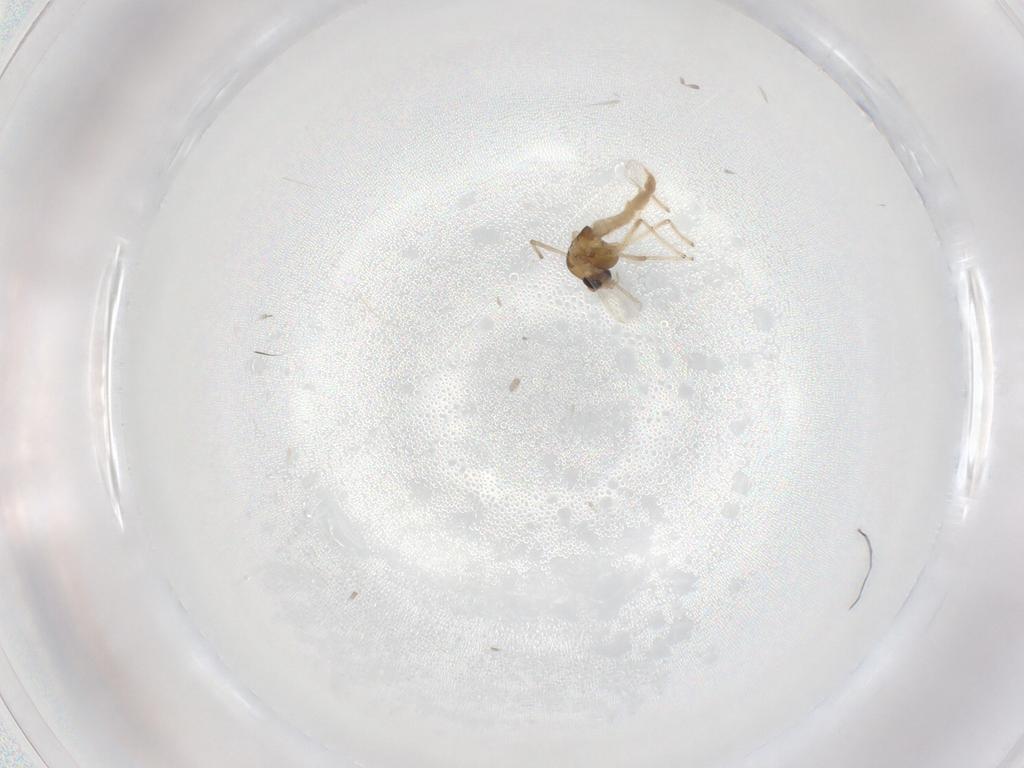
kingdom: Animalia
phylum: Arthropoda
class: Insecta
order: Diptera
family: Chironomidae
